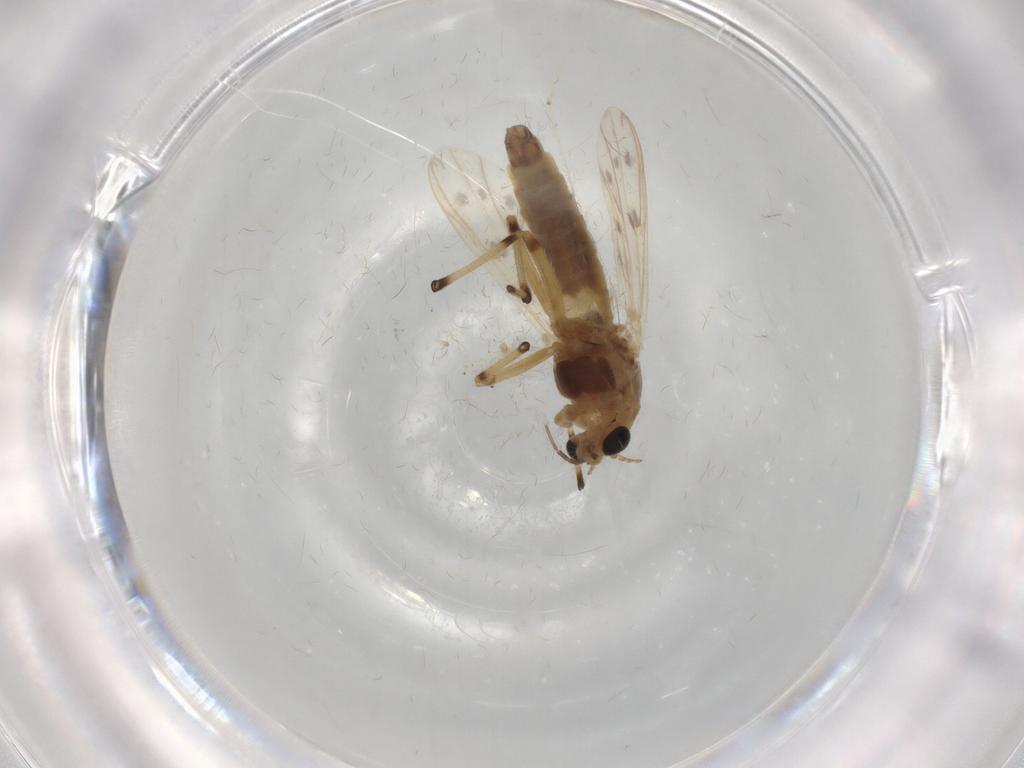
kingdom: Animalia
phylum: Arthropoda
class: Insecta
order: Diptera
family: Chironomidae
